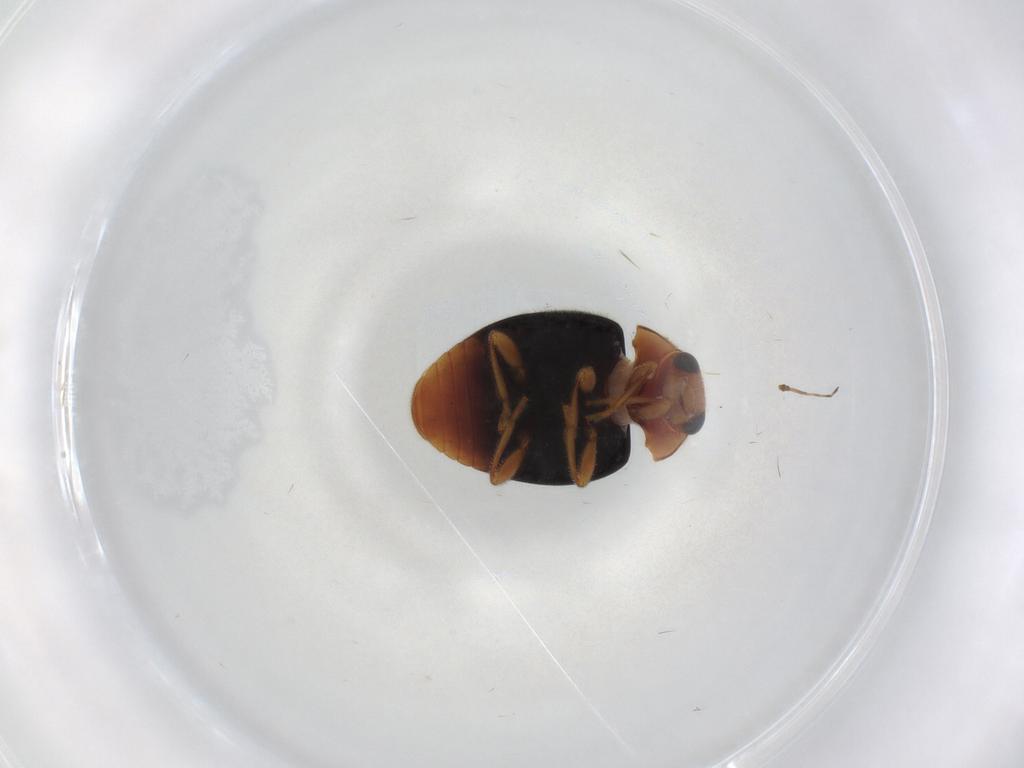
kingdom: Animalia
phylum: Arthropoda
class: Insecta
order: Coleoptera
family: Coccinellidae
